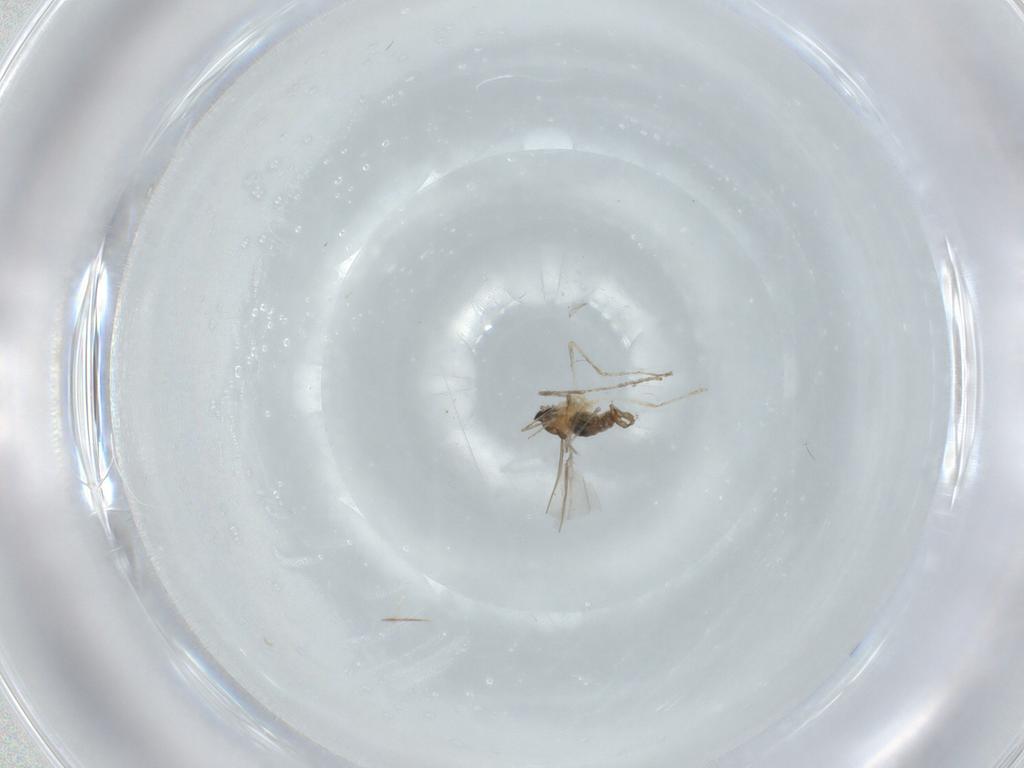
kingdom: Animalia
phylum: Arthropoda
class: Insecta
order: Diptera
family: Cecidomyiidae
